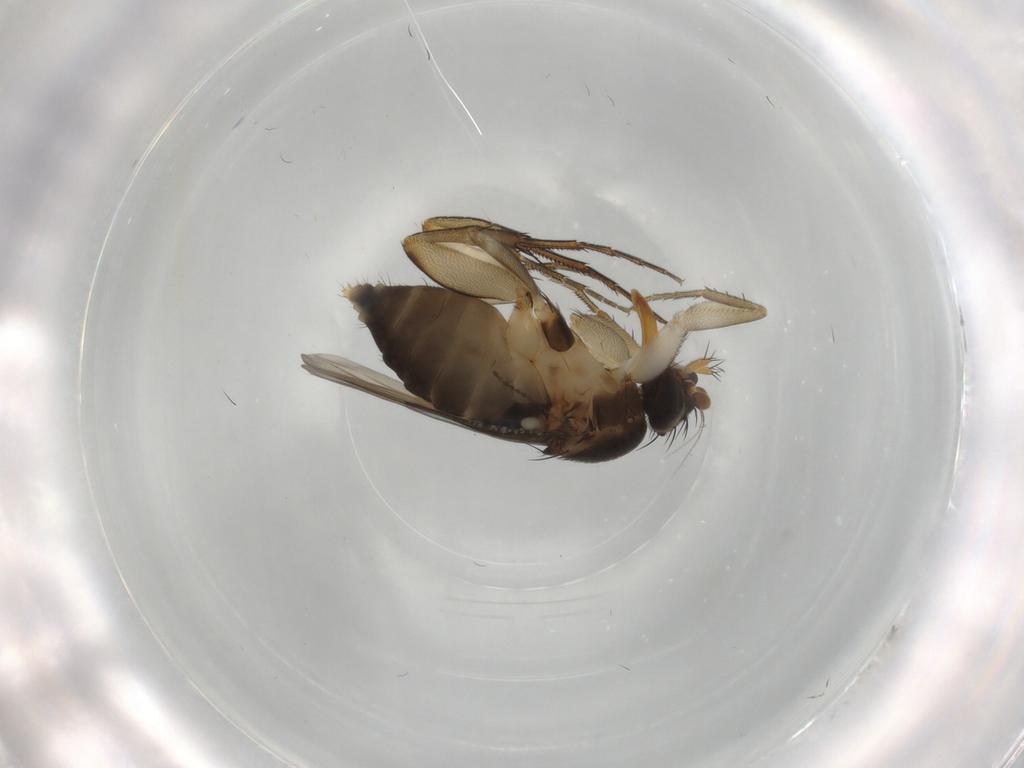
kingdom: Animalia
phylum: Arthropoda
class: Insecta
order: Diptera
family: Phoridae
